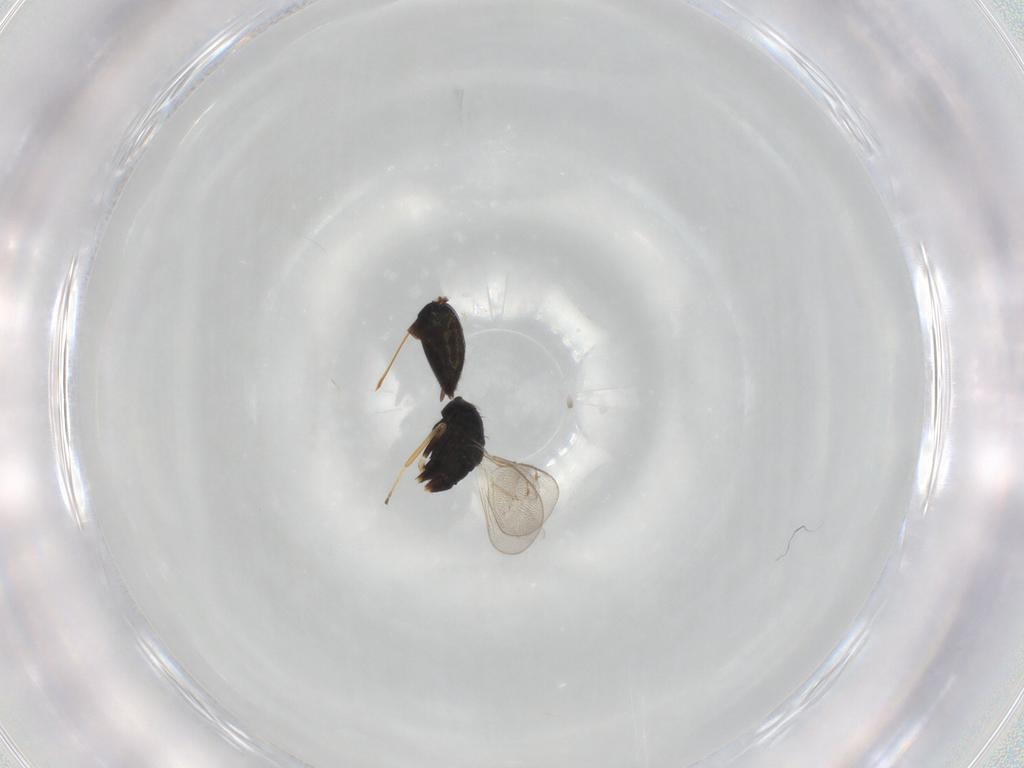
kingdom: Animalia
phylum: Arthropoda
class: Insecta
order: Hymenoptera
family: Eulophidae
